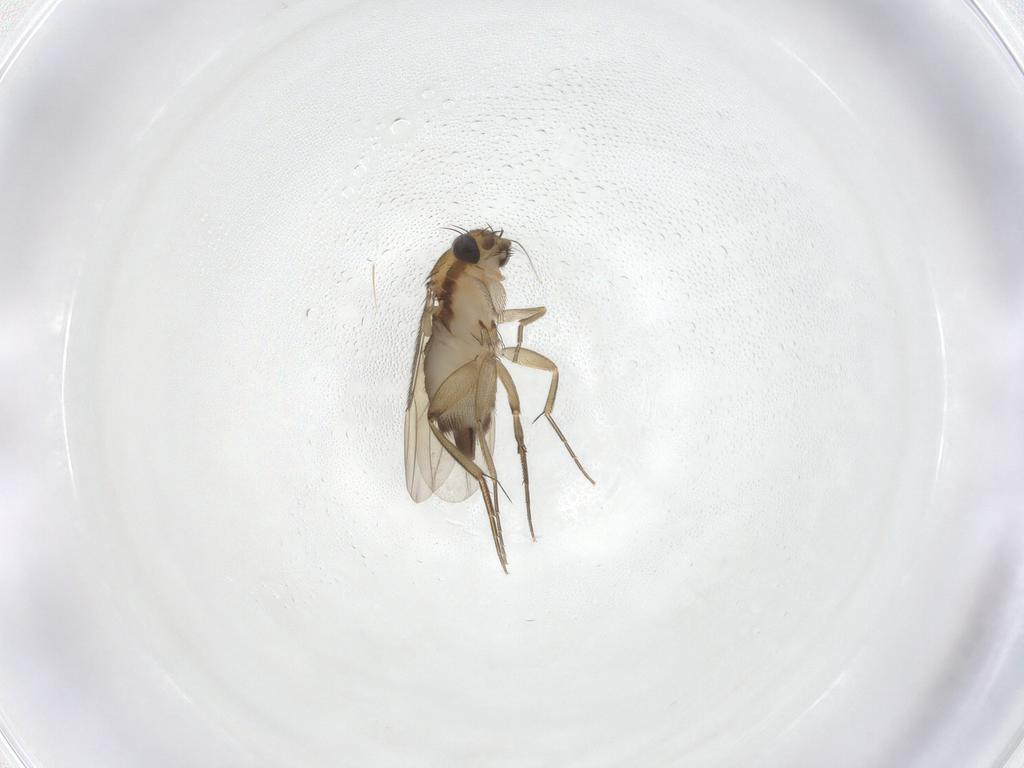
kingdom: Animalia
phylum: Arthropoda
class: Insecta
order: Diptera
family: Phoridae
